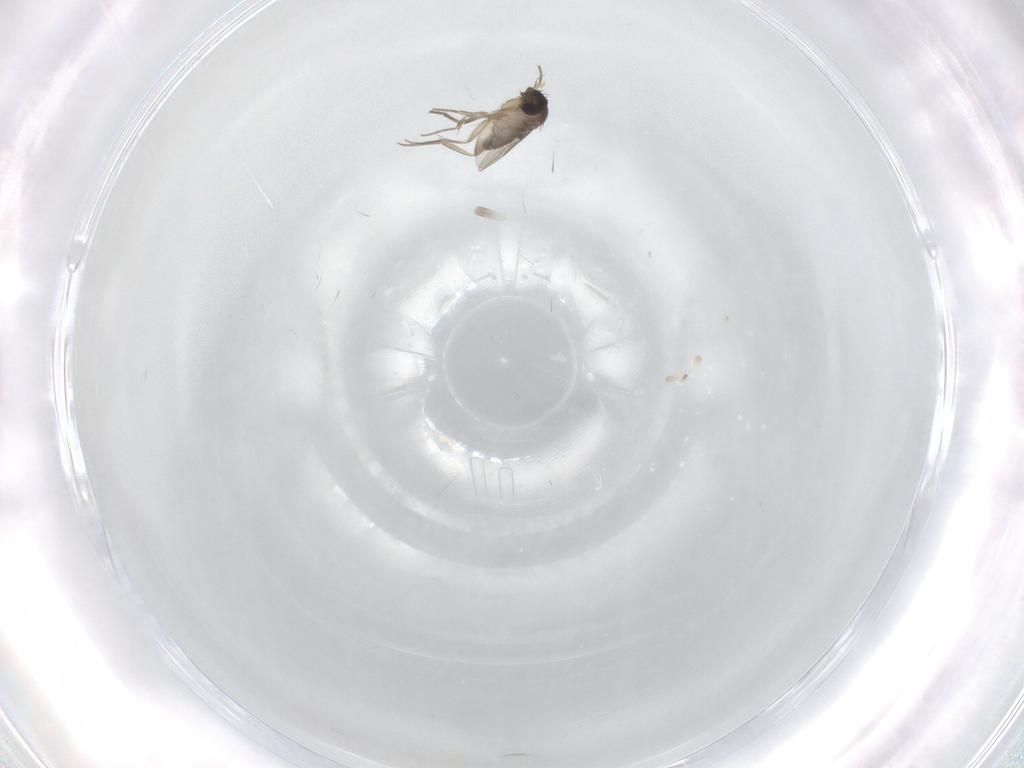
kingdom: Animalia
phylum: Arthropoda
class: Insecta
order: Diptera
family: Phoridae
